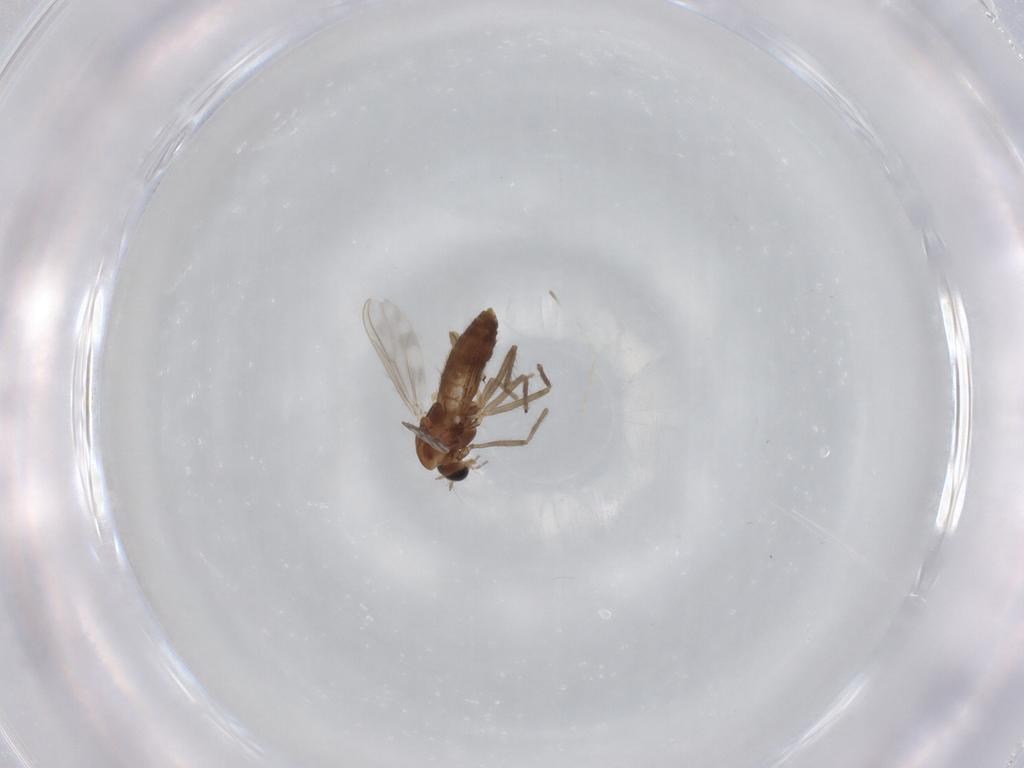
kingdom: Animalia
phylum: Arthropoda
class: Insecta
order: Diptera
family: Chironomidae
